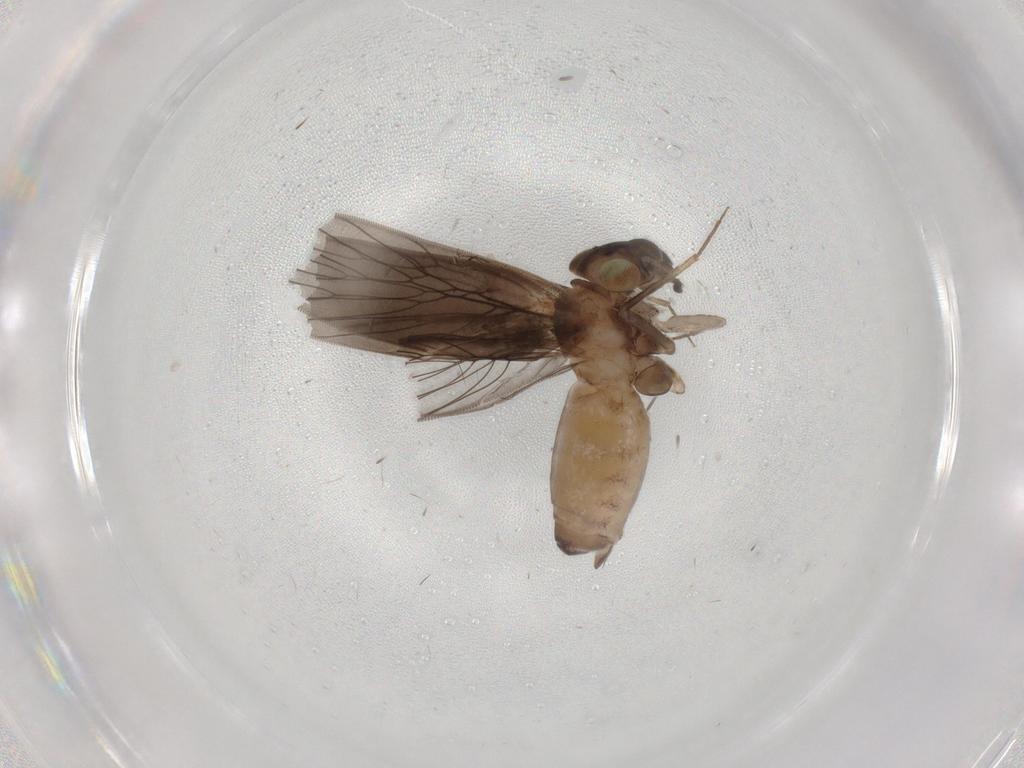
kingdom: Animalia
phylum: Arthropoda
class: Insecta
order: Psocodea
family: Lepidopsocidae
